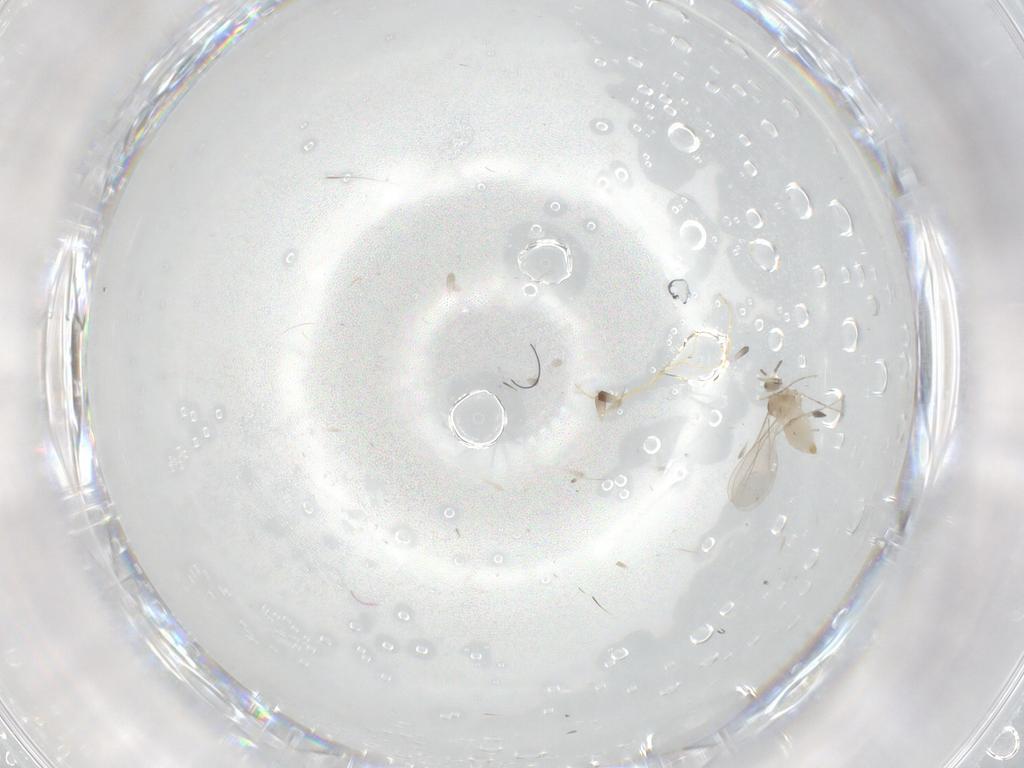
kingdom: Animalia
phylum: Arthropoda
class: Insecta
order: Diptera
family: Cecidomyiidae
